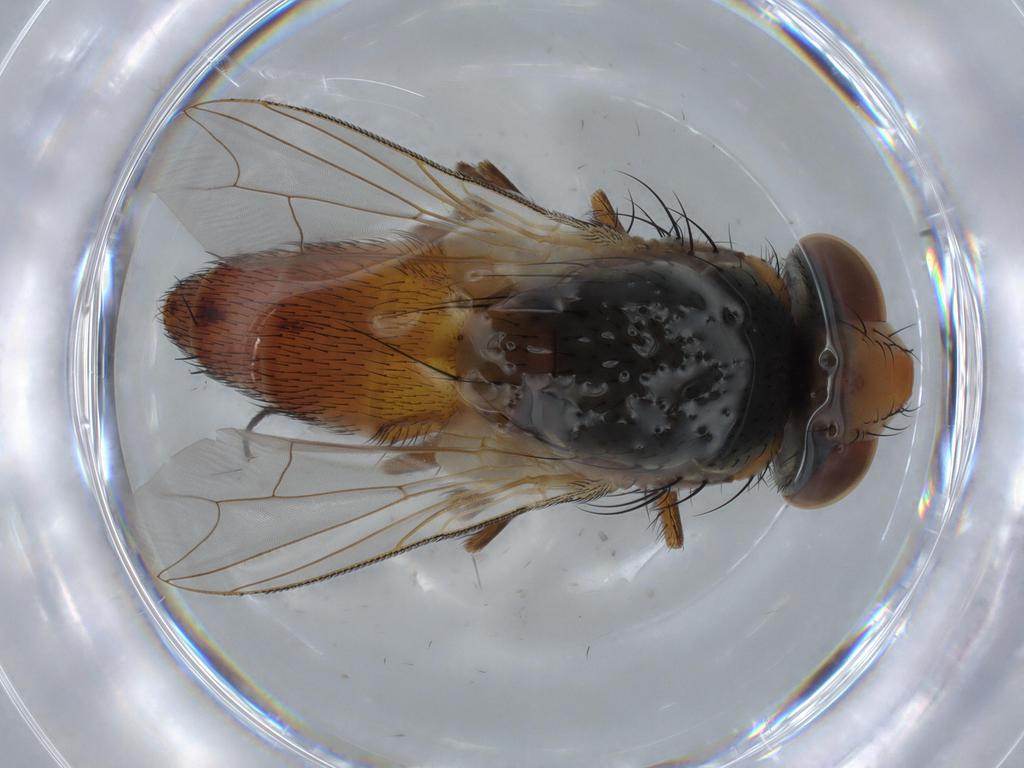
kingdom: Animalia
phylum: Arthropoda
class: Insecta
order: Diptera
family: Sarcophagidae
